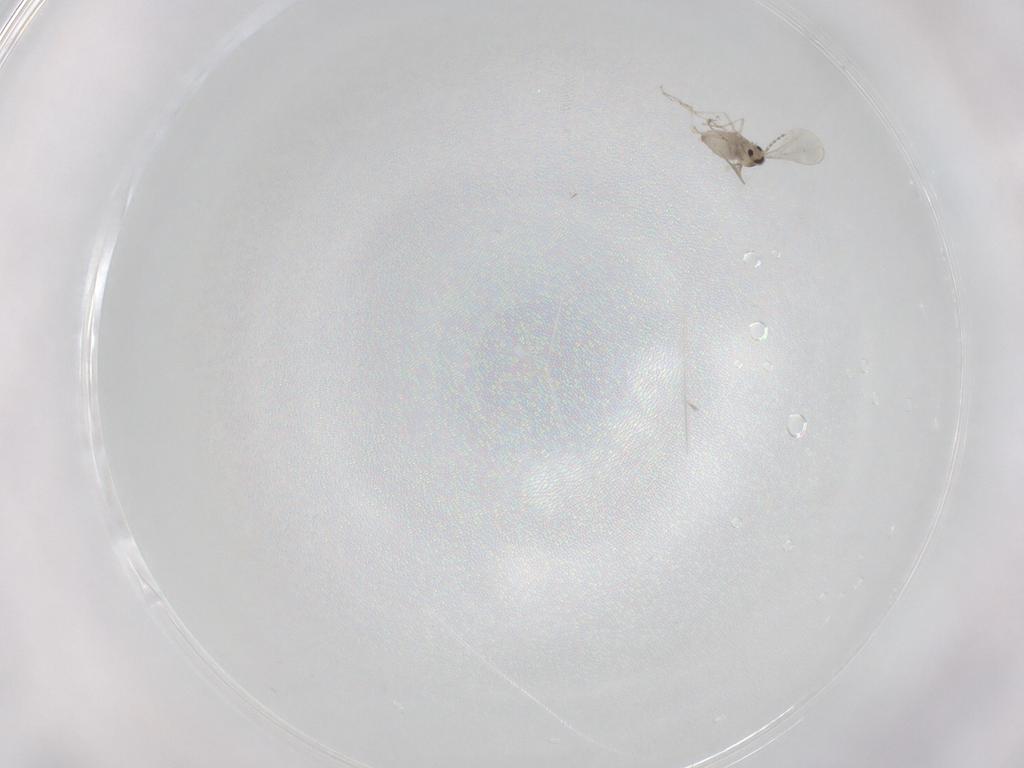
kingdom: Animalia
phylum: Arthropoda
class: Insecta
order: Diptera
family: Cecidomyiidae
